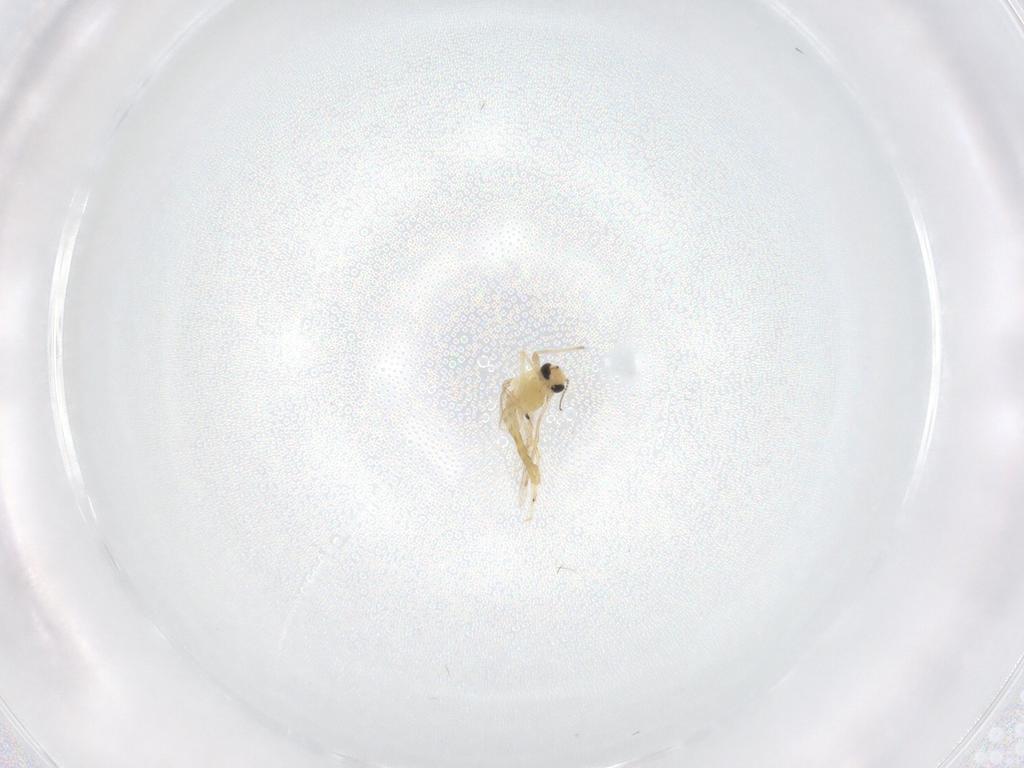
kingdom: Animalia
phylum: Arthropoda
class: Insecta
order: Diptera
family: Chironomidae
